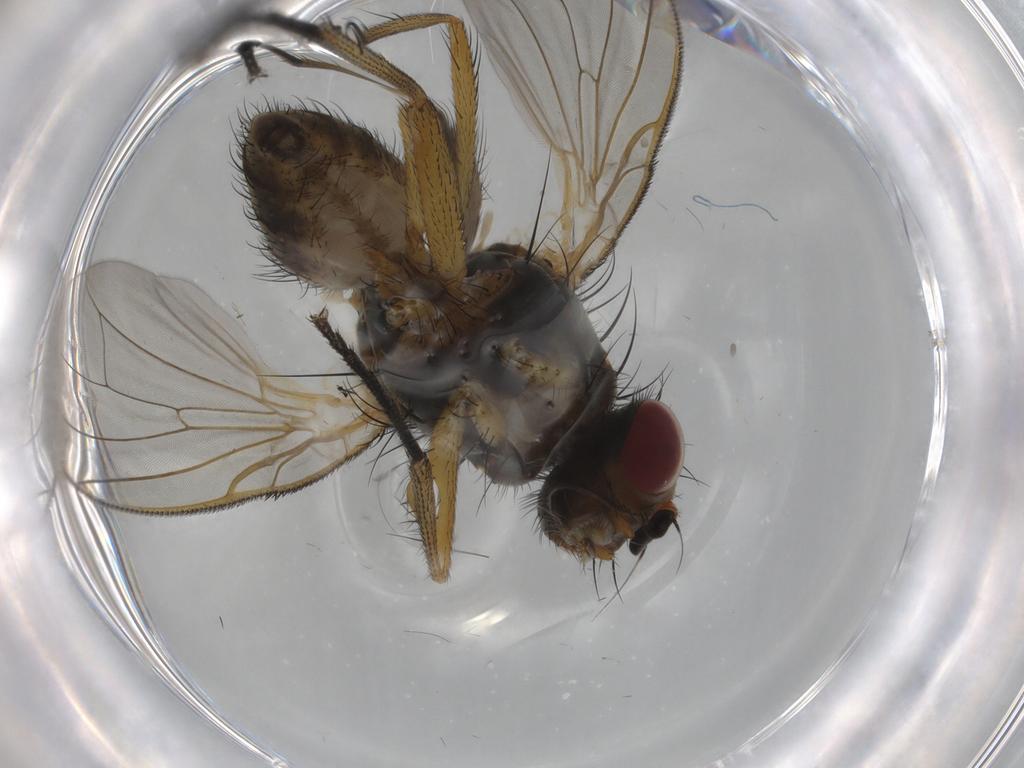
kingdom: Animalia
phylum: Arthropoda
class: Insecta
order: Diptera
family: Anthomyiidae
